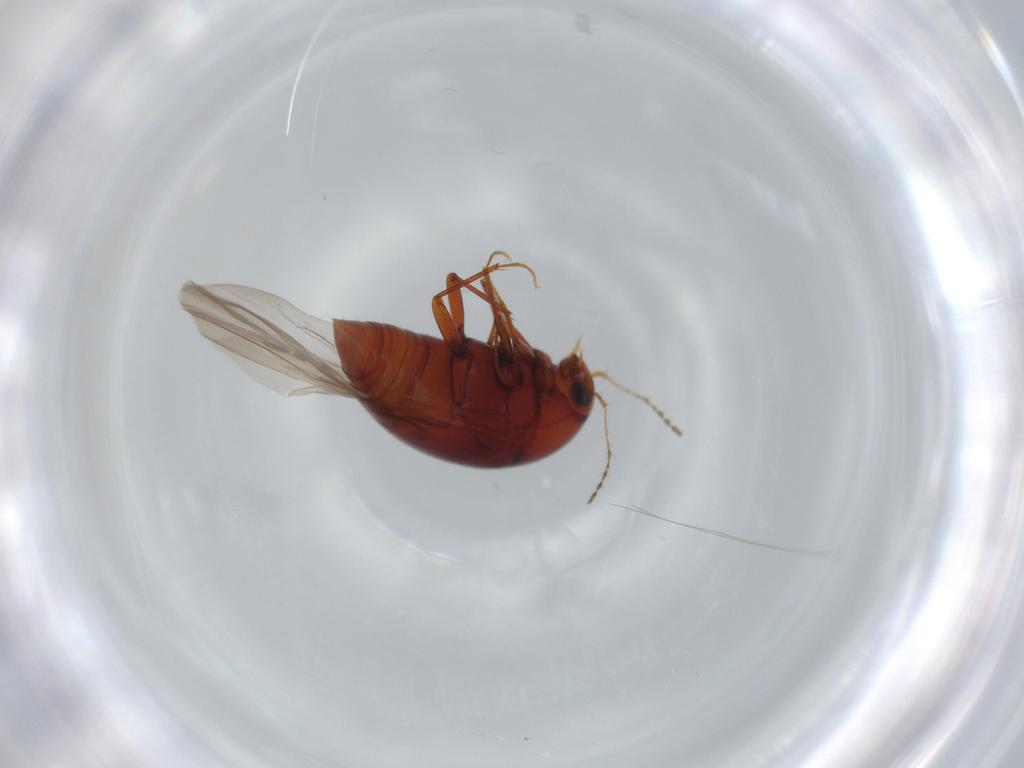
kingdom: Animalia
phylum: Arthropoda
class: Insecta
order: Coleoptera
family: Staphylinidae
